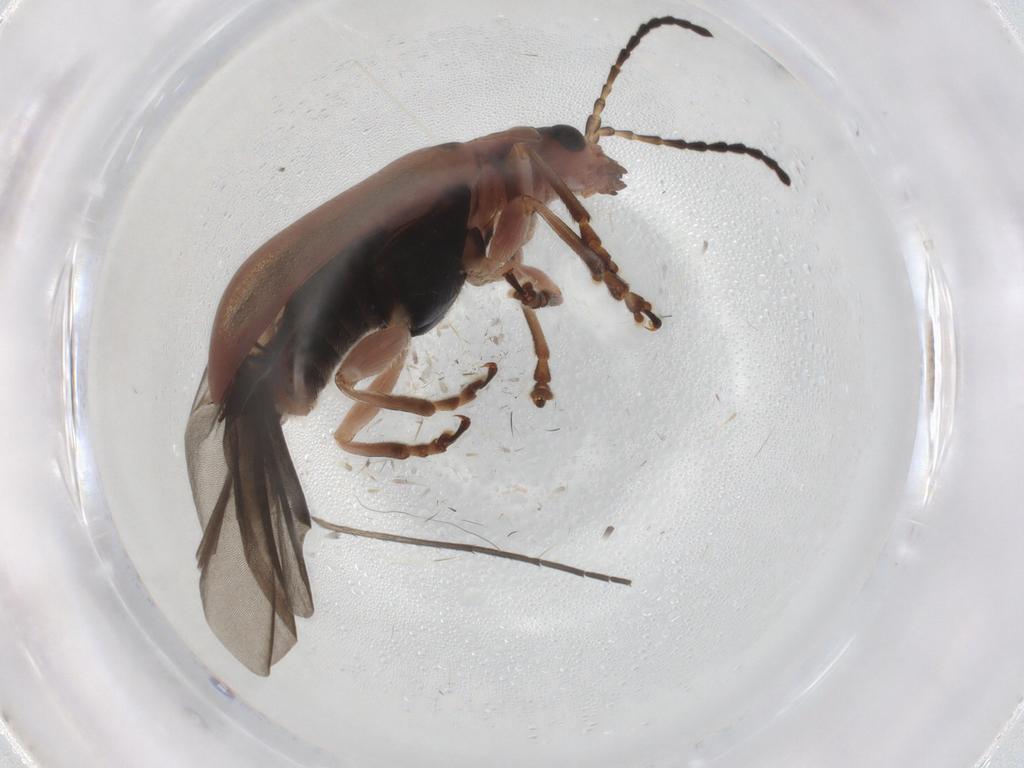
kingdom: Animalia
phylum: Arthropoda
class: Insecta
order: Coleoptera
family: Chrysomelidae
